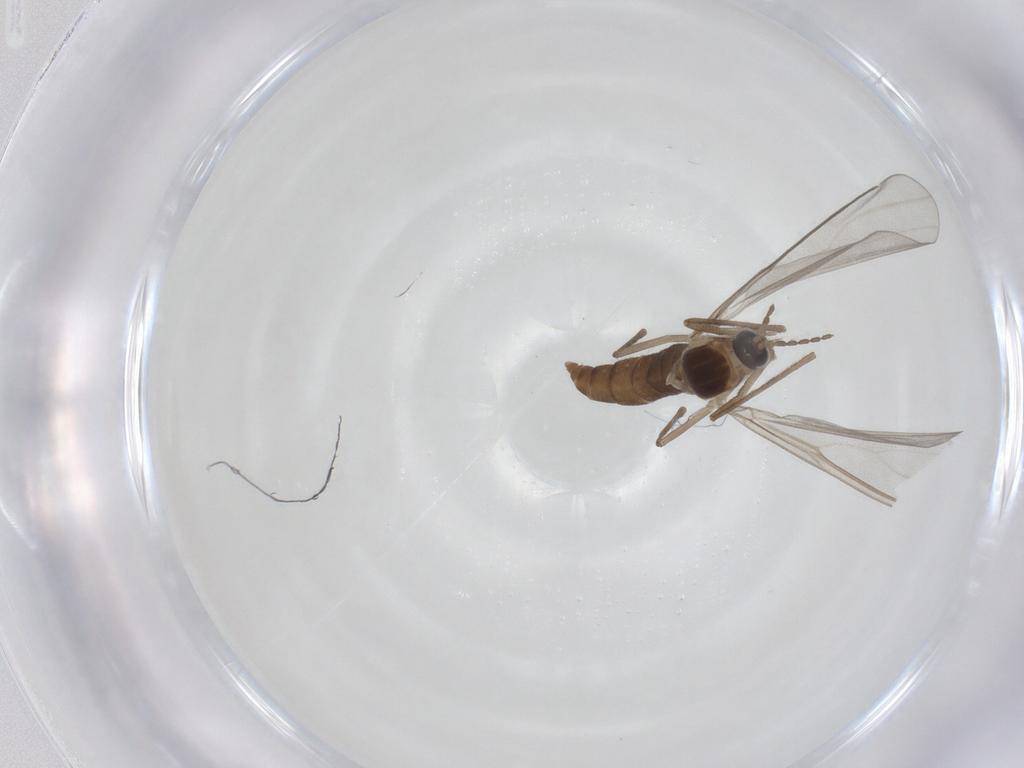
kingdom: Animalia
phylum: Arthropoda
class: Insecta
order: Diptera
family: Cecidomyiidae
